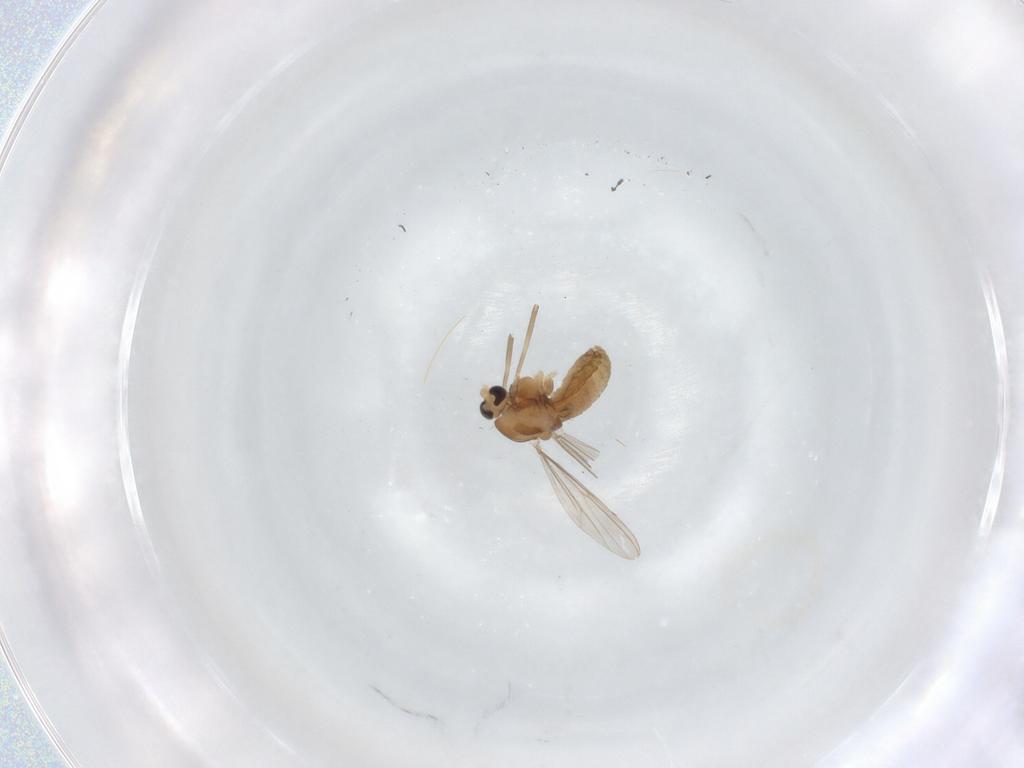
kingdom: Animalia
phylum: Arthropoda
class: Insecta
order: Diptera
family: Chironomidae
